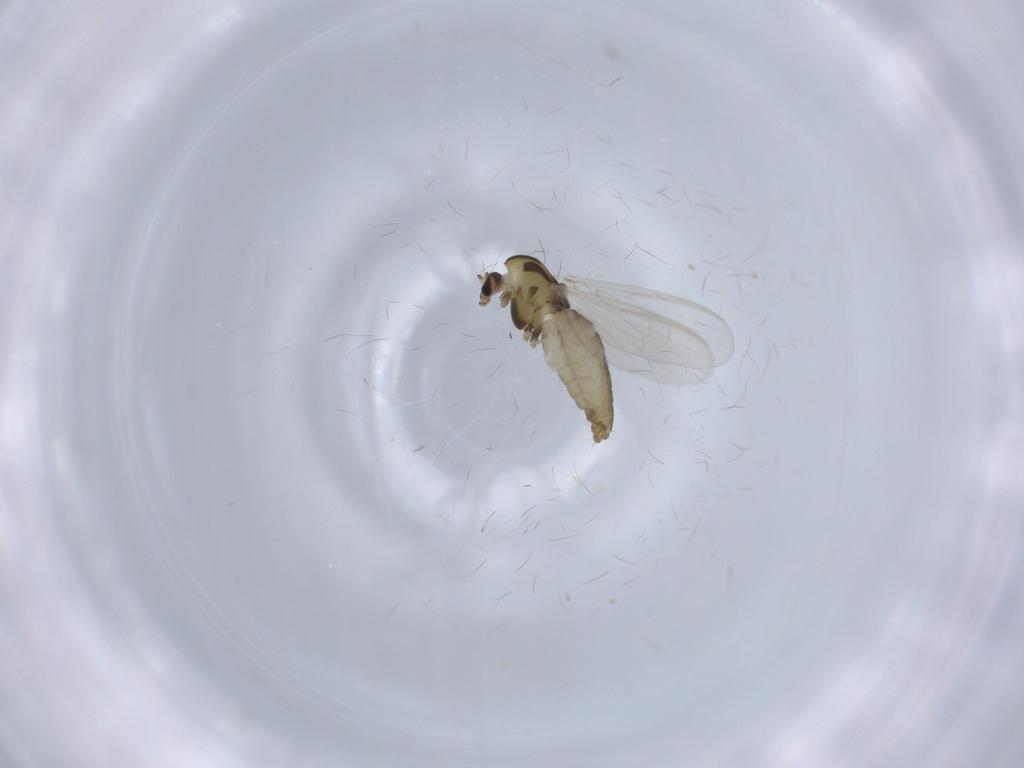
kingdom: Animalia
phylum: Arthropoda
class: Insecta
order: Diptera
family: Chironomidae
